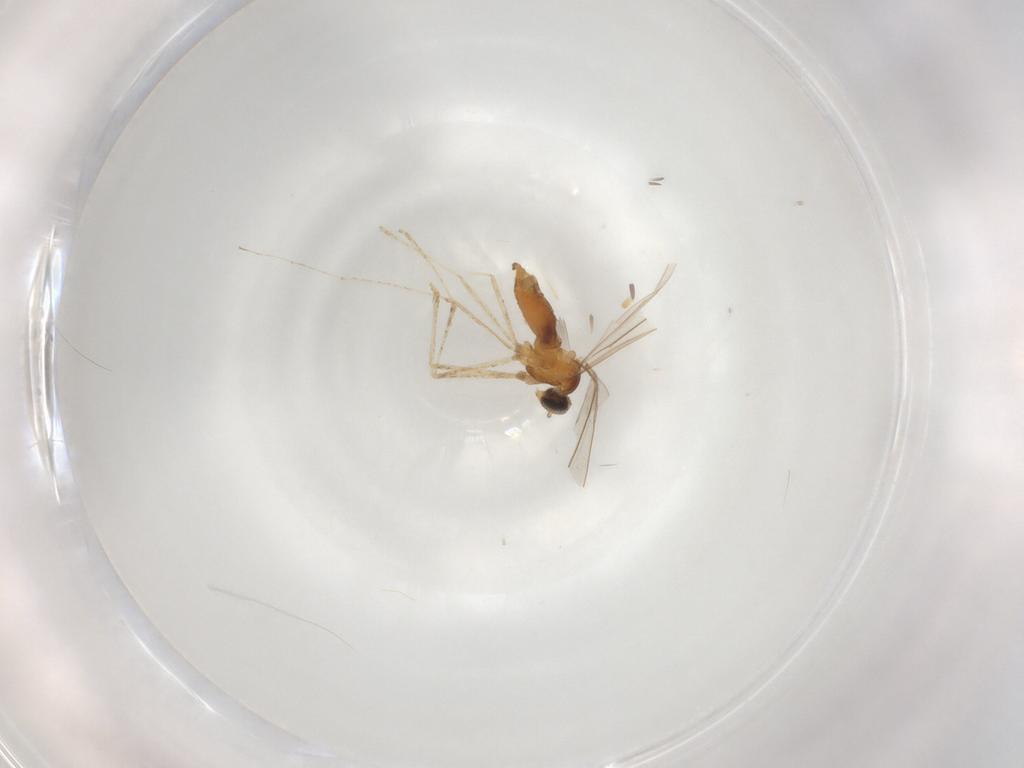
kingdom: Animalia
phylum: Arthropoda
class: Insecta
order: Diptera
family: Cecidomyiidae
